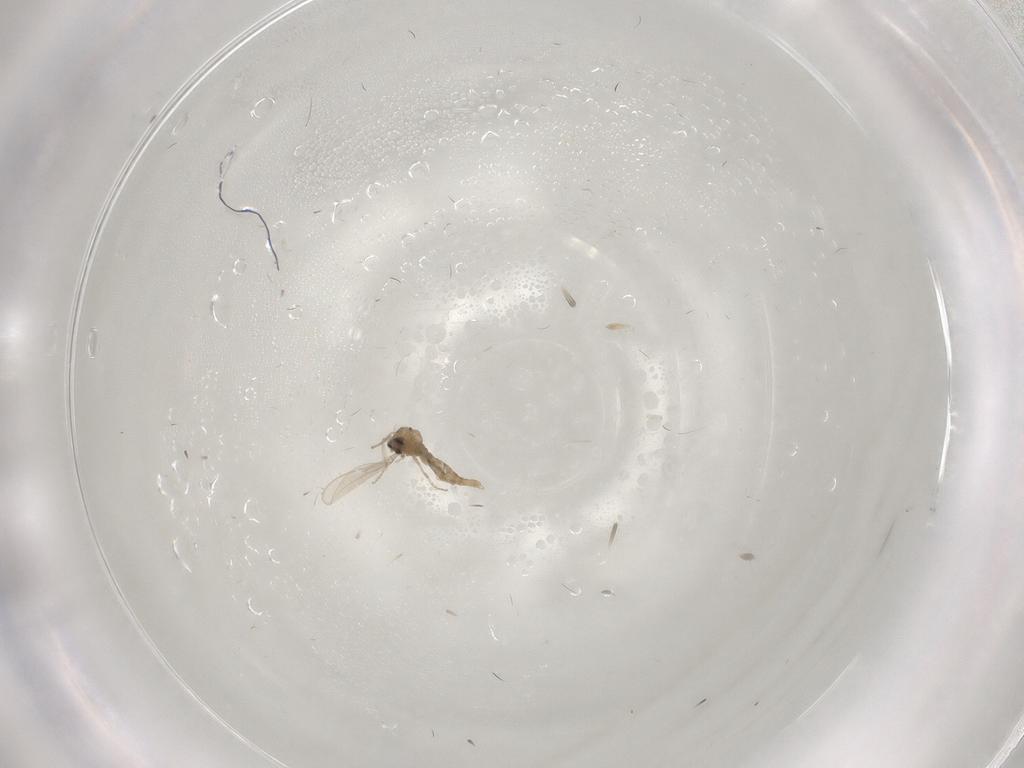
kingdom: Animalia
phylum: Arthropoda
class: Insecta
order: Diptera
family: Cecidomyiidae
